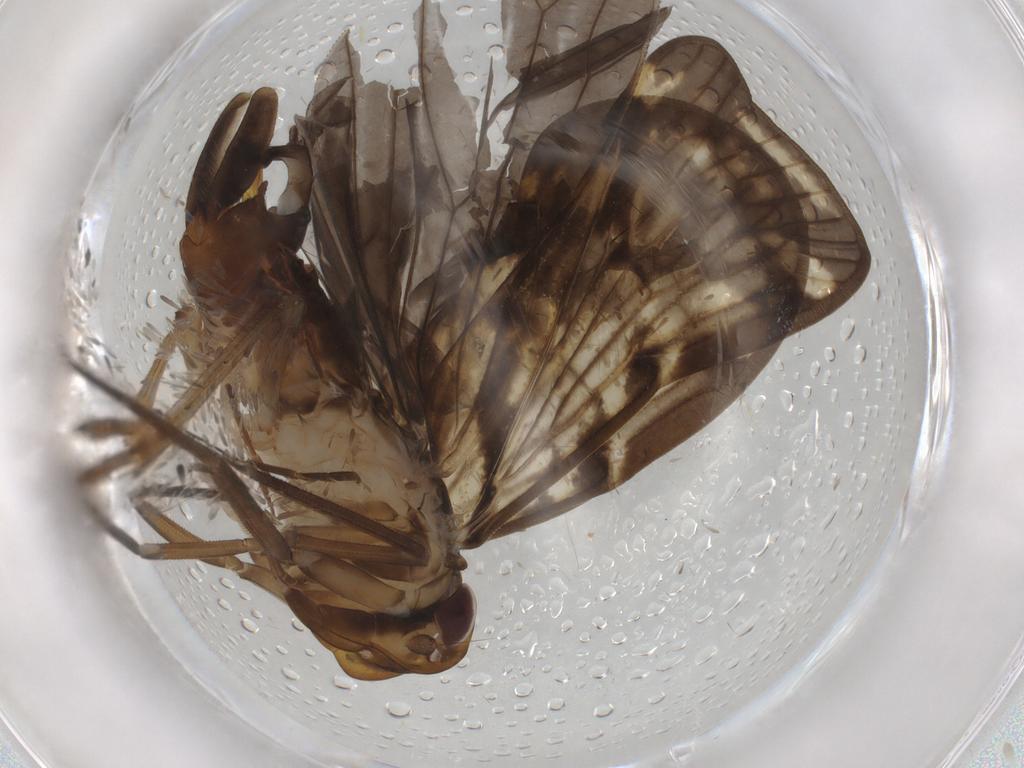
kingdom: Animalia
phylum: Arthropoda
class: Insecta
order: Hemiptera
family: Cixiidae
